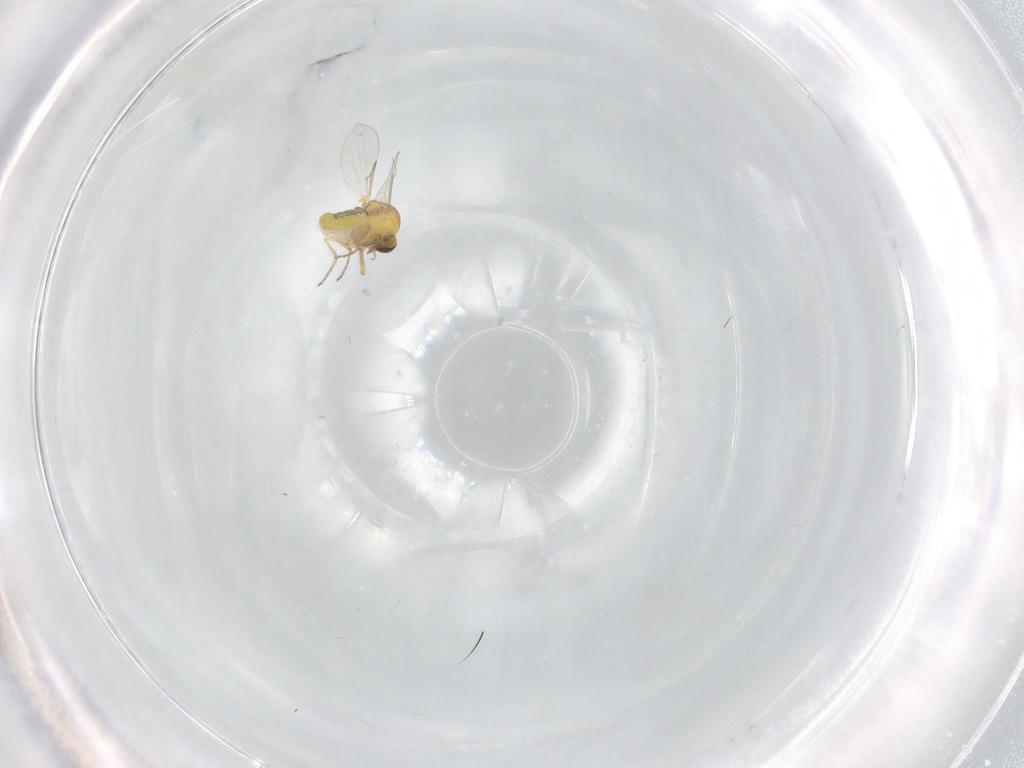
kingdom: Animalia
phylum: Arthropoda
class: Insecta
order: Diptera
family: Ceratopogonidae
